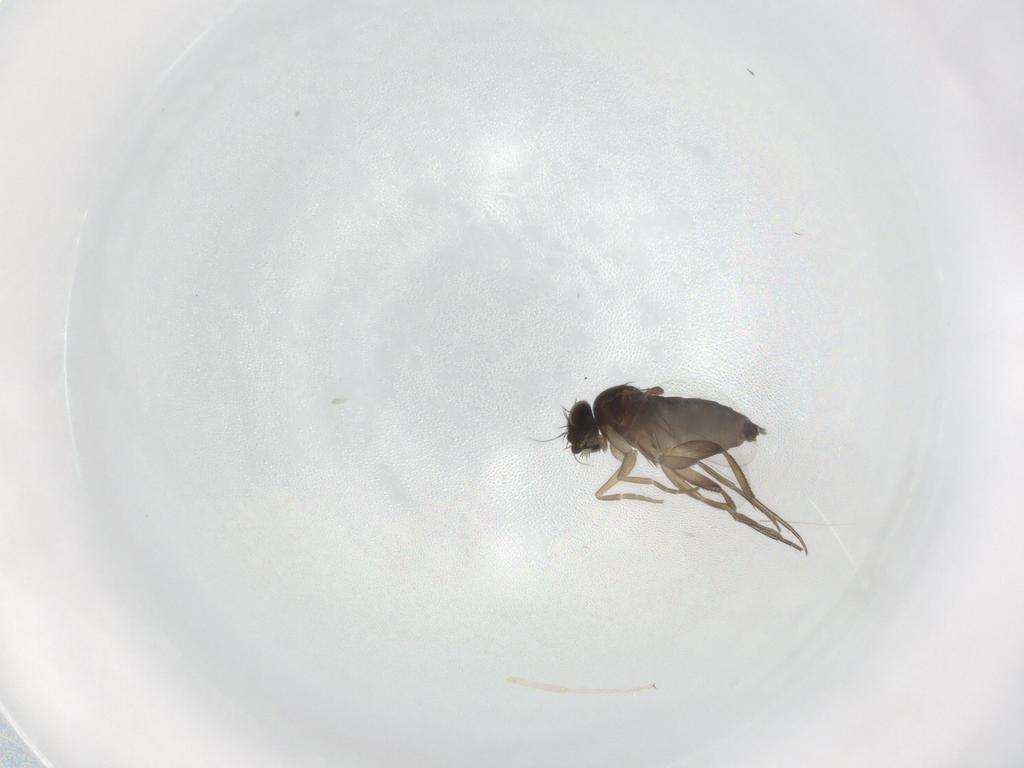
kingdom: Animalia
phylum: Arthropoda
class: Insecta
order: Diptera
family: Phoridae
